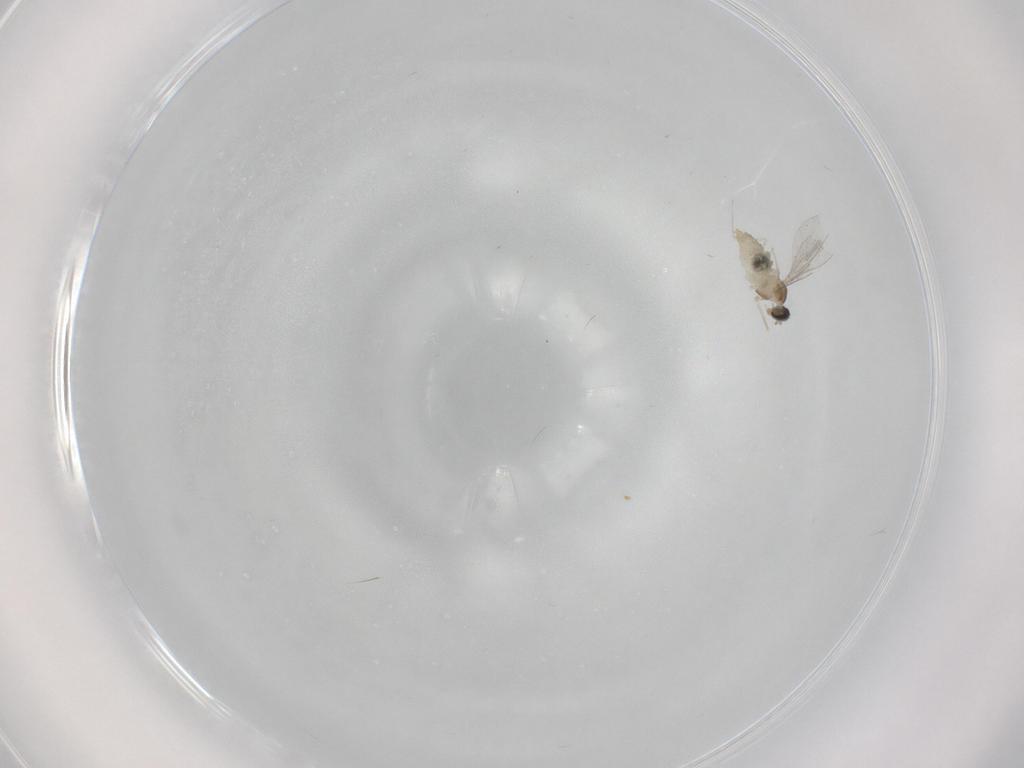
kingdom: Animalia
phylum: Arthropoda
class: Insecta
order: Diptera
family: Cecidomyiidae
